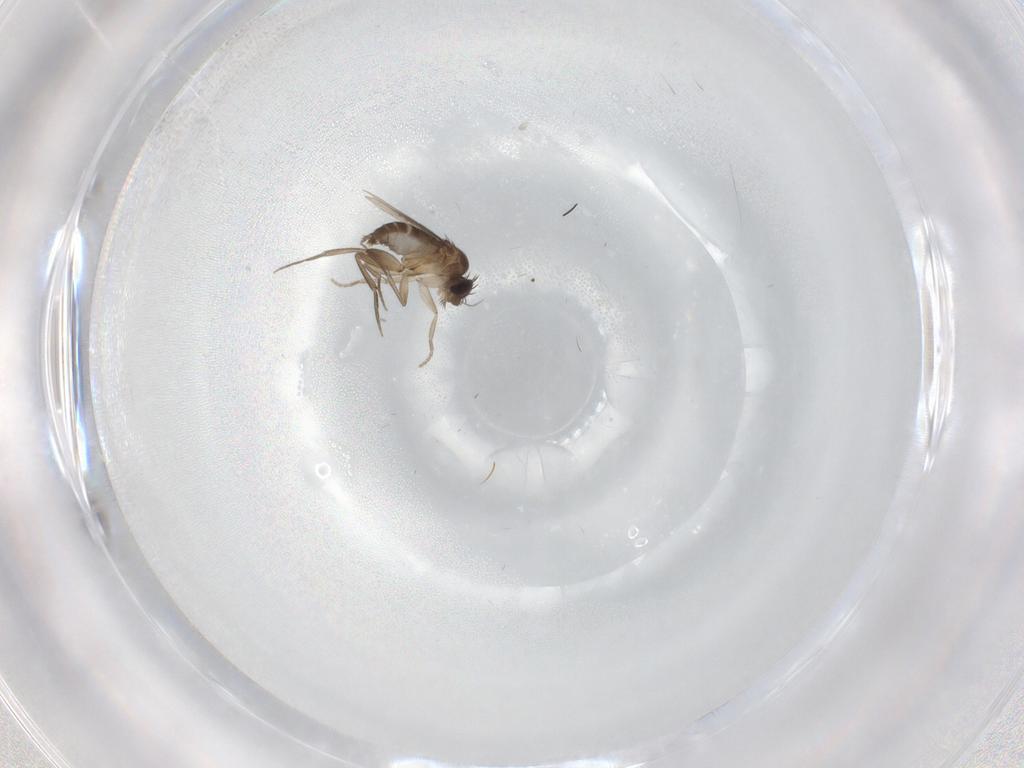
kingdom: Animalia
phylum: Arthropoda
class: Insecta
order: Diptera
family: Phoridae
